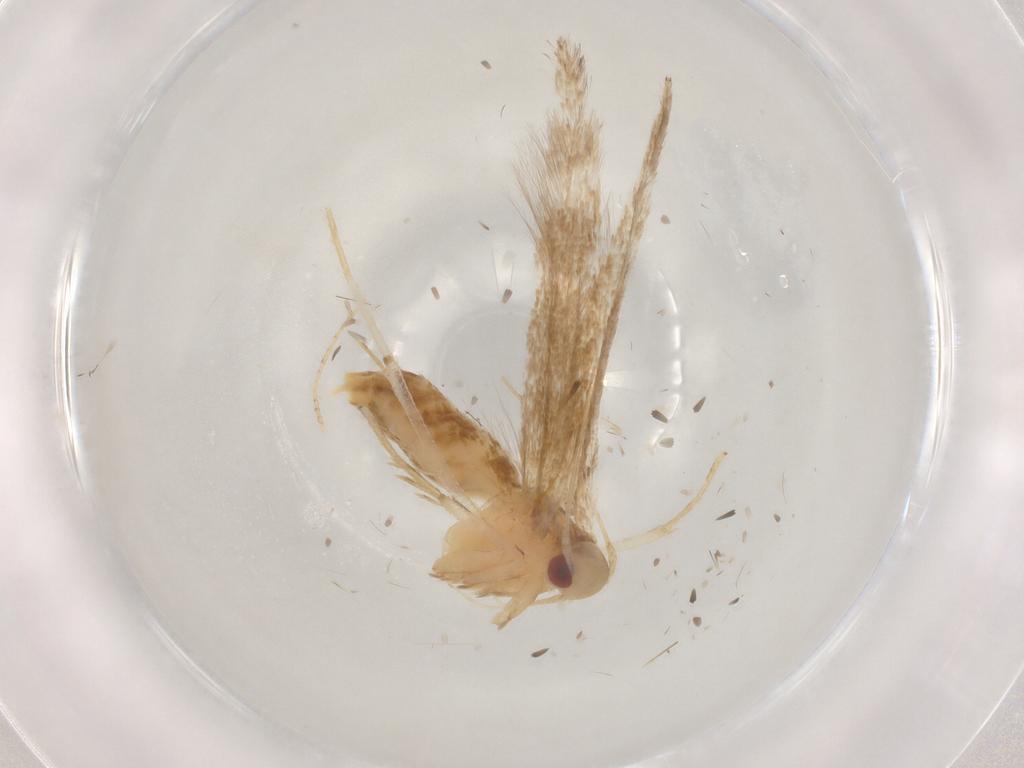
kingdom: Animalia
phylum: Arthropoda
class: Insecta
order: Lepidoptera
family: Cosmopterigidae
